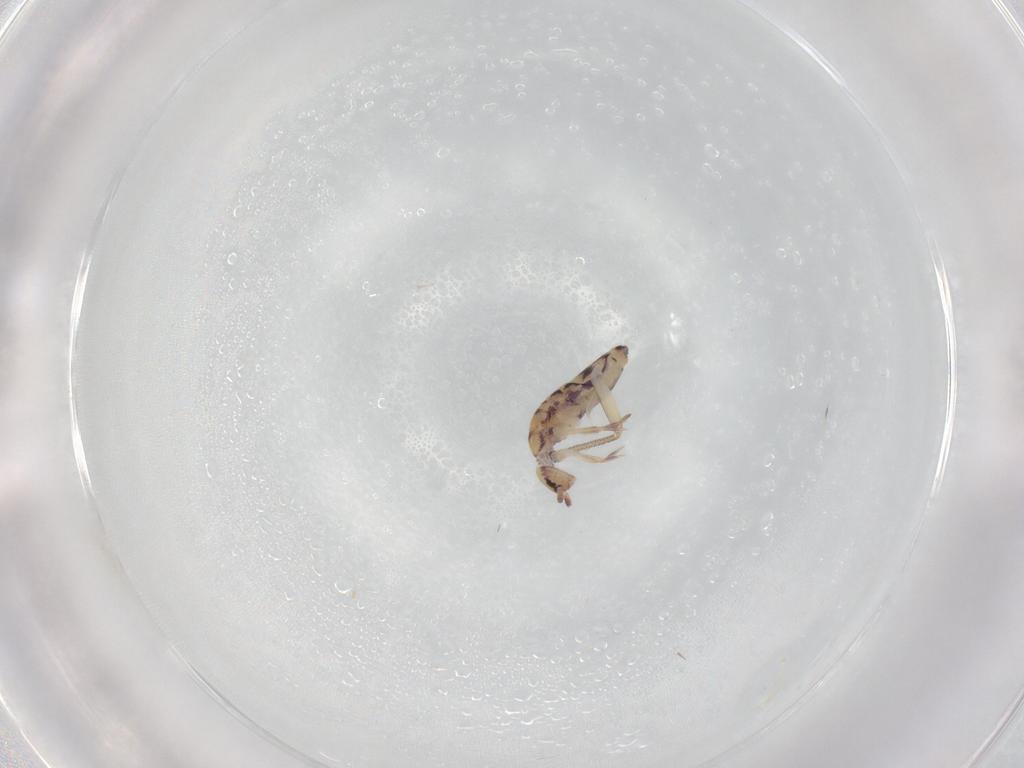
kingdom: Animalia
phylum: Arthropoda
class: Collembola
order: Entomobryomorpha
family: Entomobryidae
